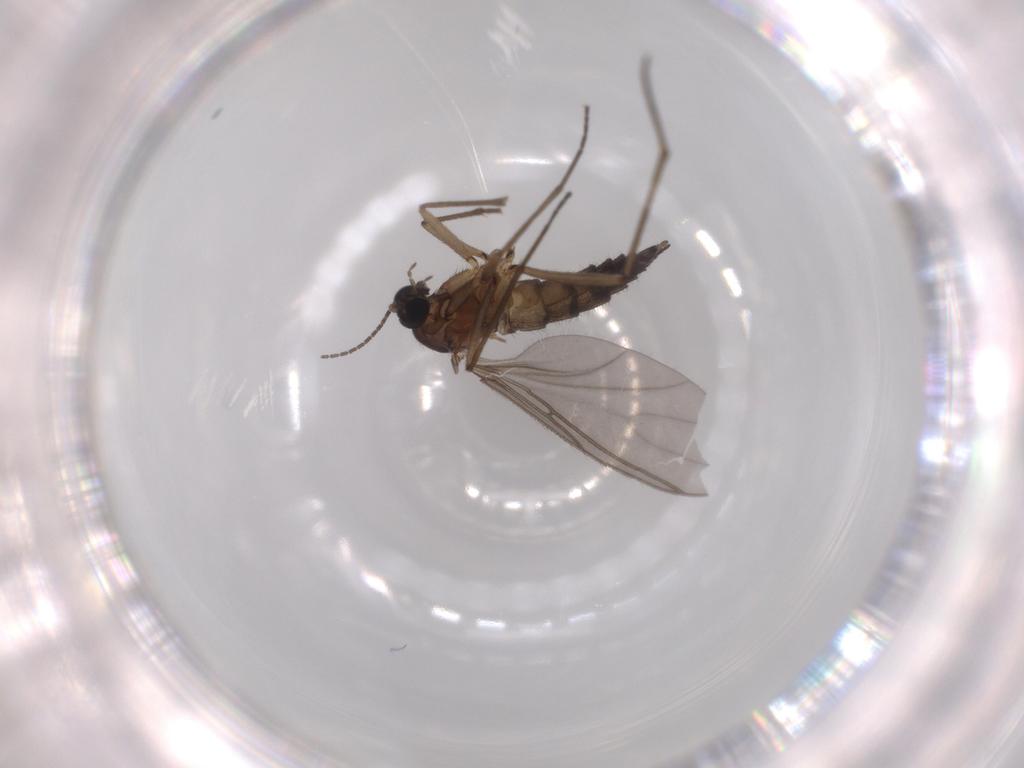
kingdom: Animalia
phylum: Arthropoda
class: Insecta
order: Diptera
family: Sciaridae
